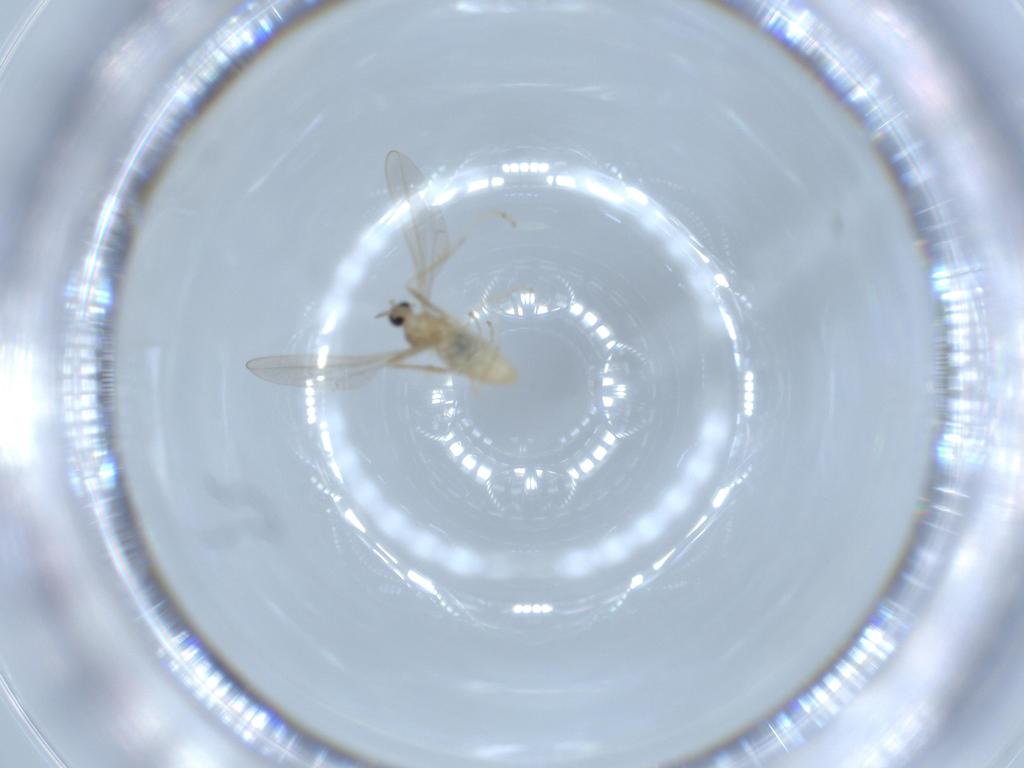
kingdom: Animalia
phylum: Arthropoda
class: Insecta
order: Diptera
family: Cecidomyiidae
